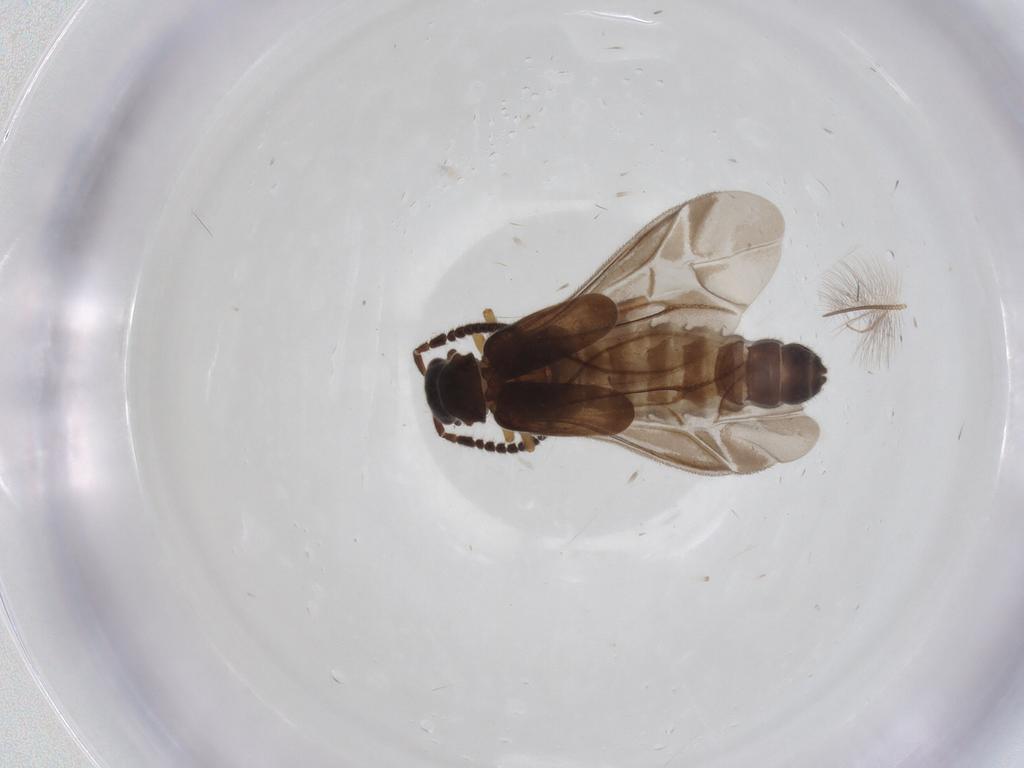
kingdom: Animalia
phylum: Arthropoda
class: Insecta
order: Coleoptera
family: Cantharidae
